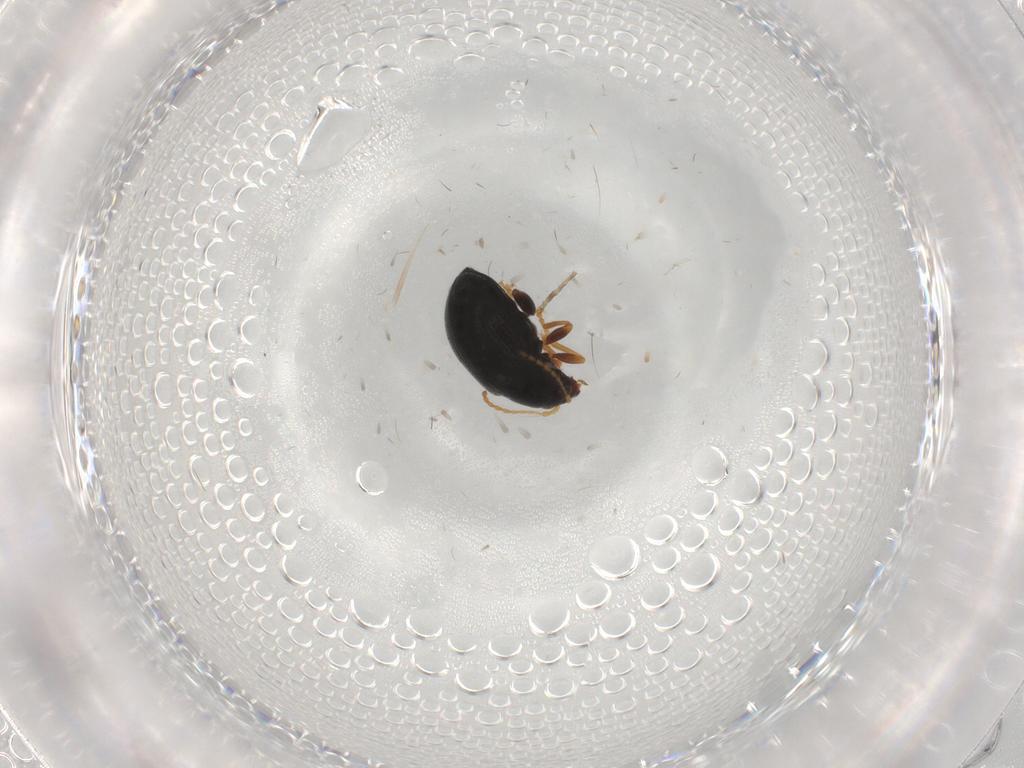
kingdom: Animalia
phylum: Arthropoda
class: Insecta
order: Coleoptera
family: Chrysomelidae
